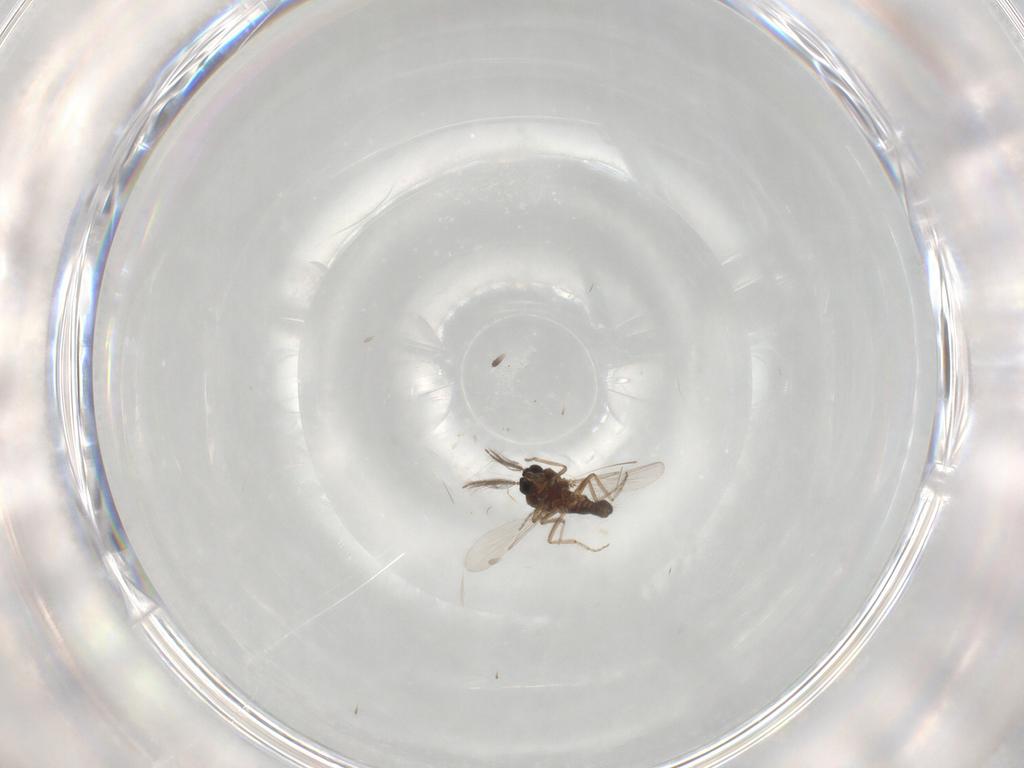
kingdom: Animalia
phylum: Arthropoda
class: Insecta
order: Diptera
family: Ceratopogonidae
